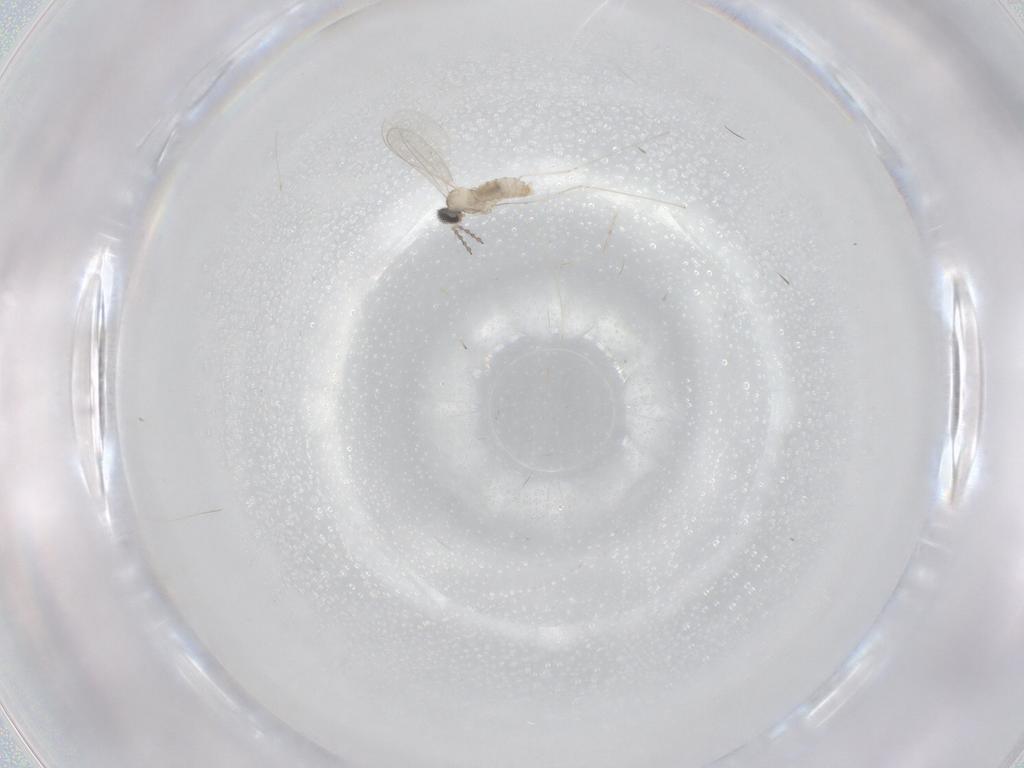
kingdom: Animalia
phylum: Arthropoda
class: Insecta
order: Diptera
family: Cecidomyiidae
